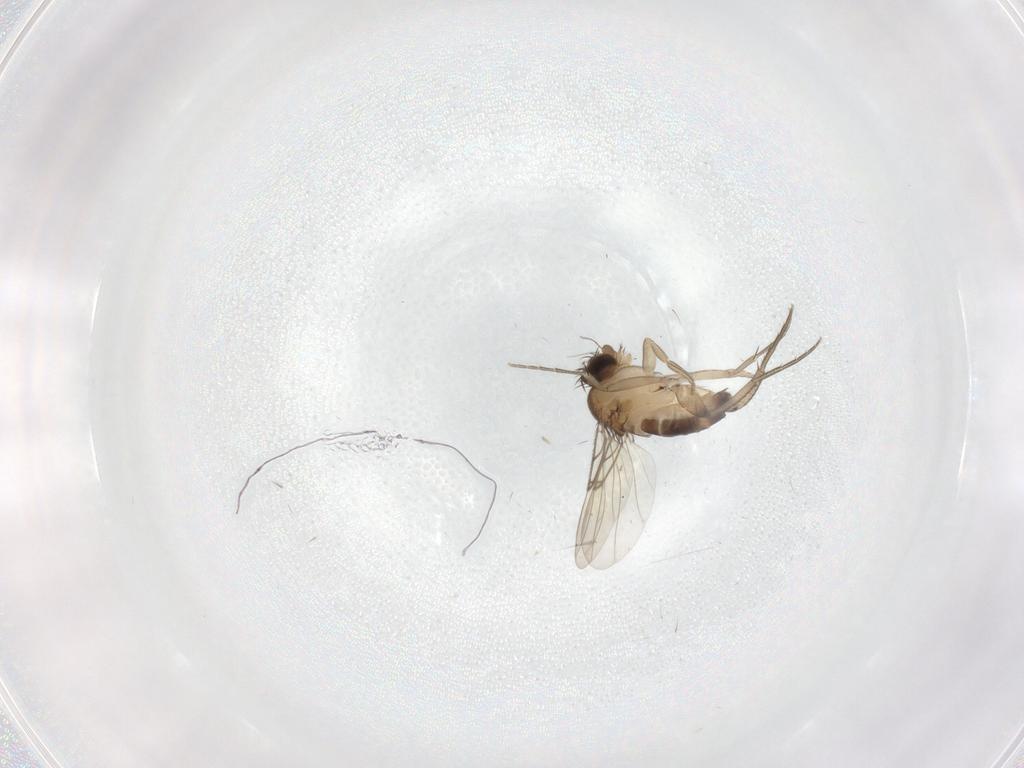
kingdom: Animalia
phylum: Arthropoda
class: Insecta
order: Diptera
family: Phoridae
